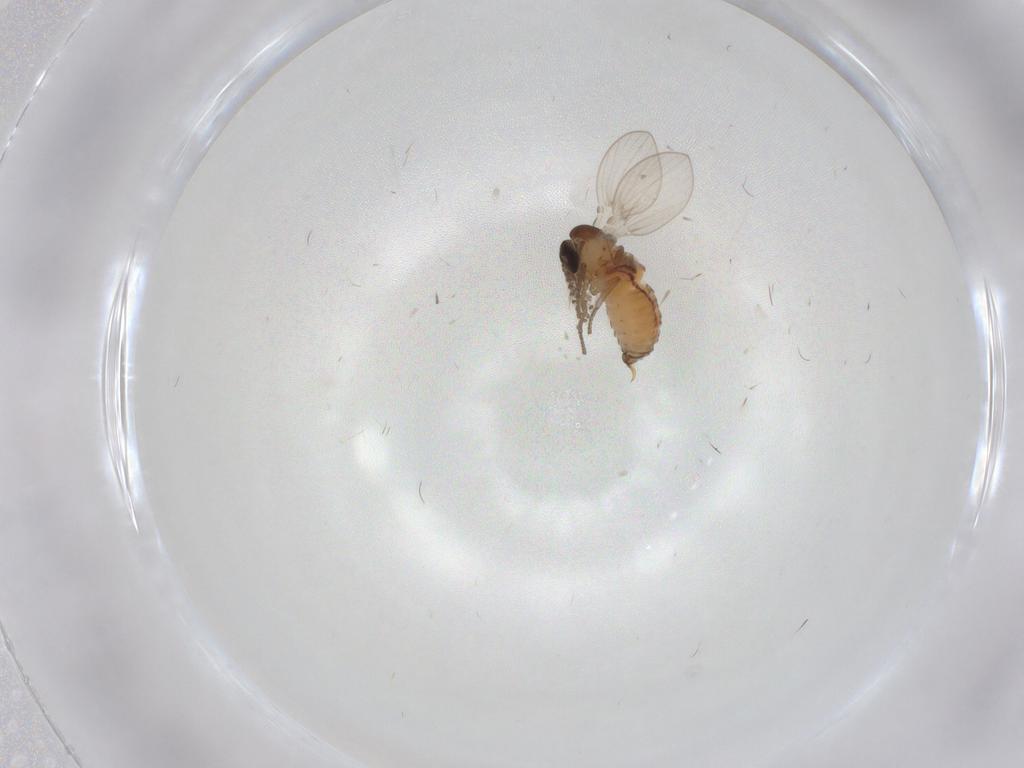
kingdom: Animalia
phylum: Arthropoda
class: Insecta
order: Diptera
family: Psychodidae
